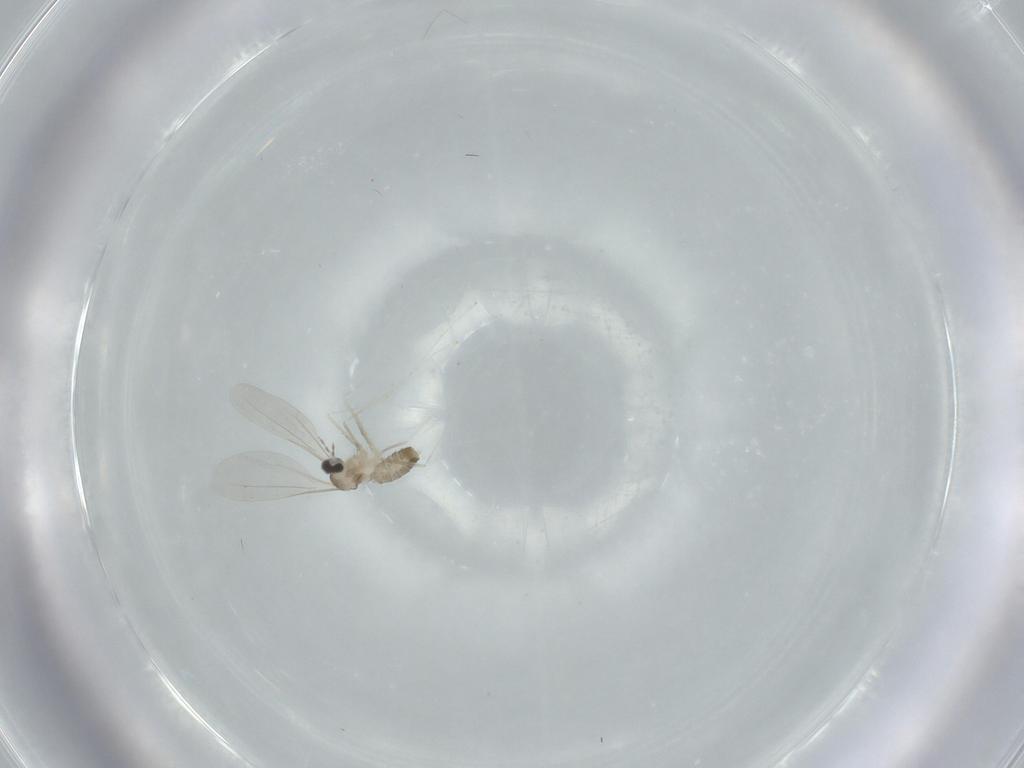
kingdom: Animalia
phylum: Arthropoda
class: Insecta
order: Diptera
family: Cecidomyiidae
